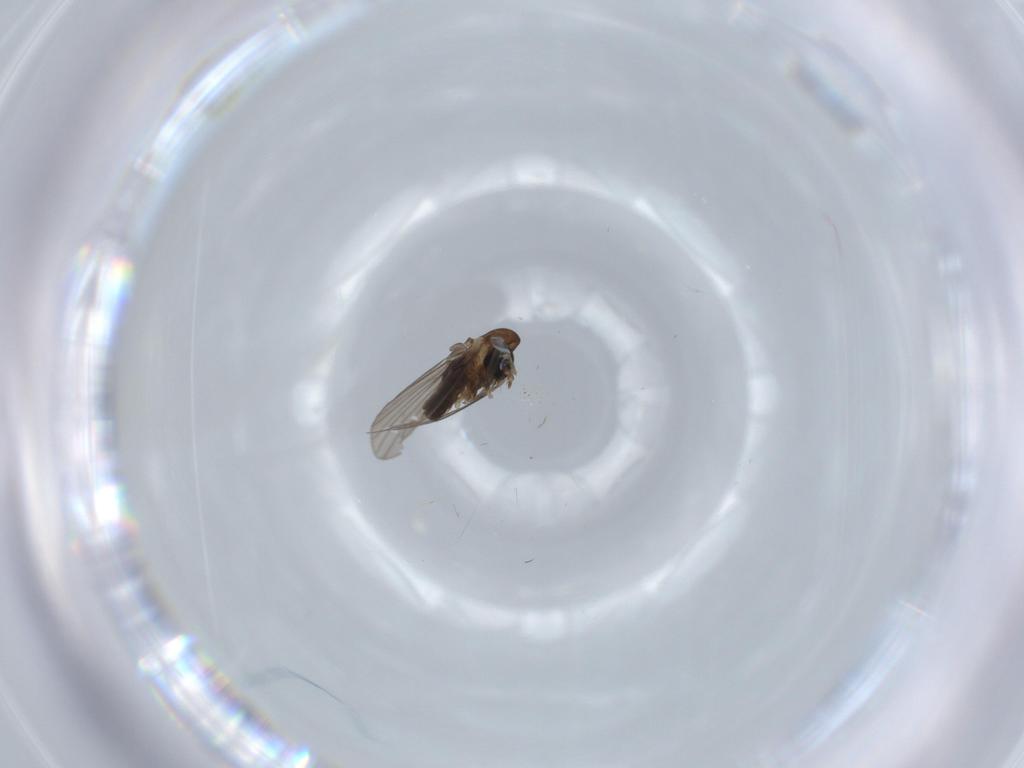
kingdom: Animalia
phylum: Arthropoda
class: Insecta
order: Diptera
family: Psychodidae
